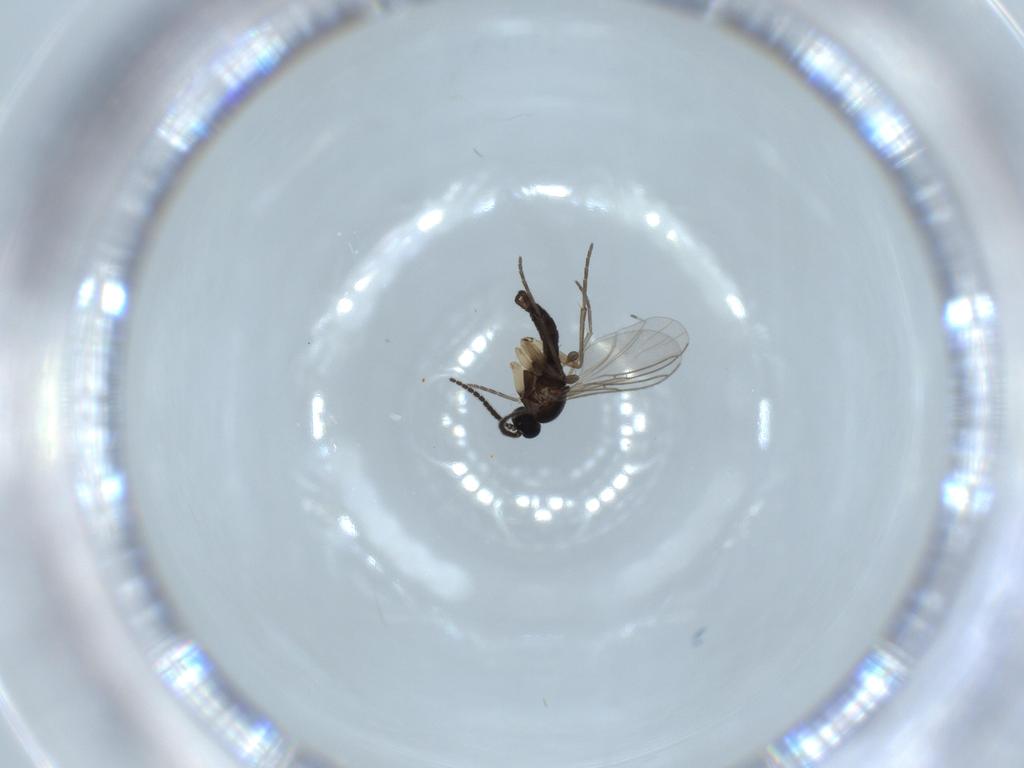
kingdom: Animalia
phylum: Arthropoda
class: Insecta
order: Diptera
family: Sciaridae
